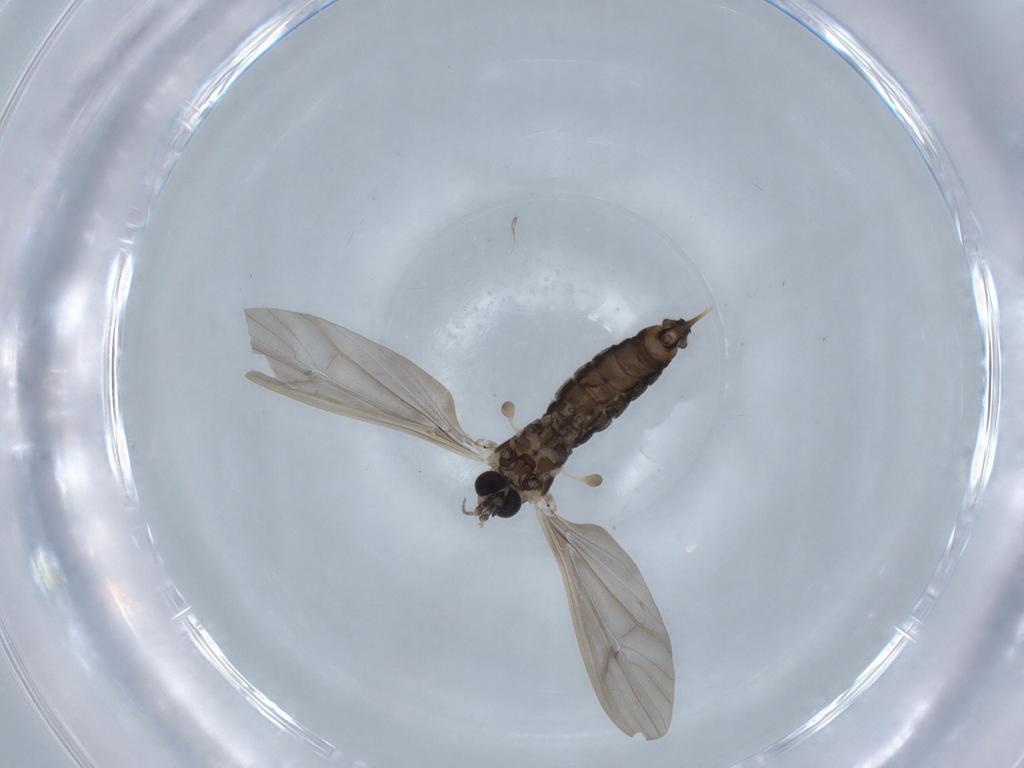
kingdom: Animalia
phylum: Arthropoda
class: Insecta
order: Diptera
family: Limoniidae
